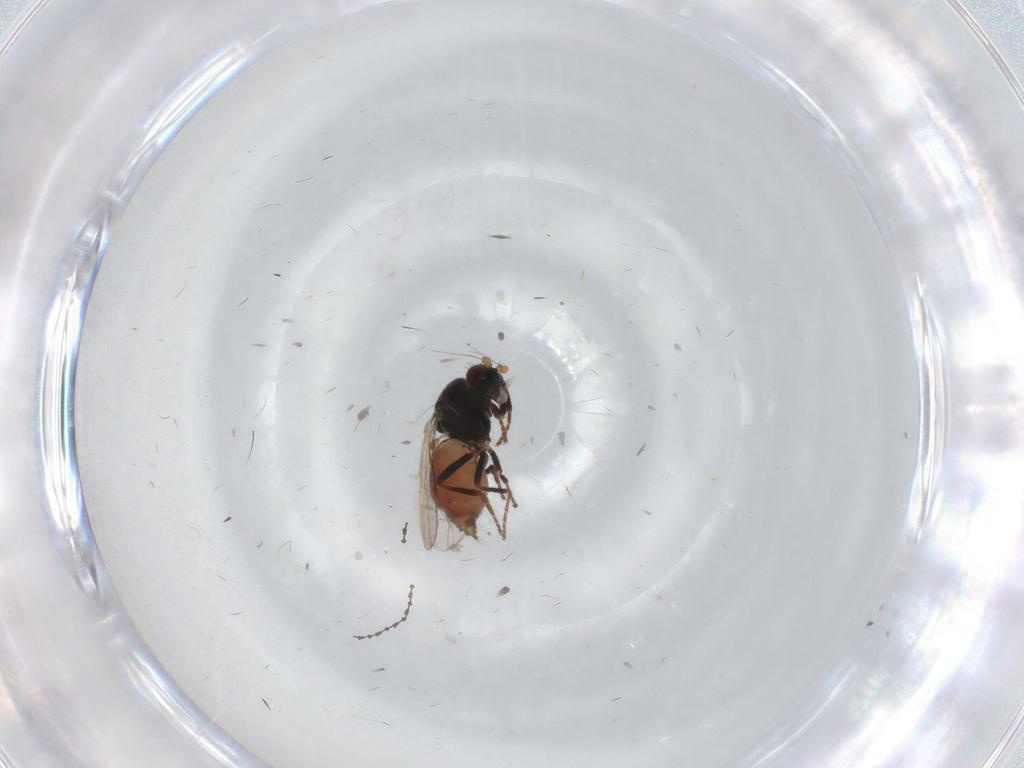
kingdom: Animalia
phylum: Arthropoda
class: Insecta
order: Diptera
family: Sphaeroceridae
